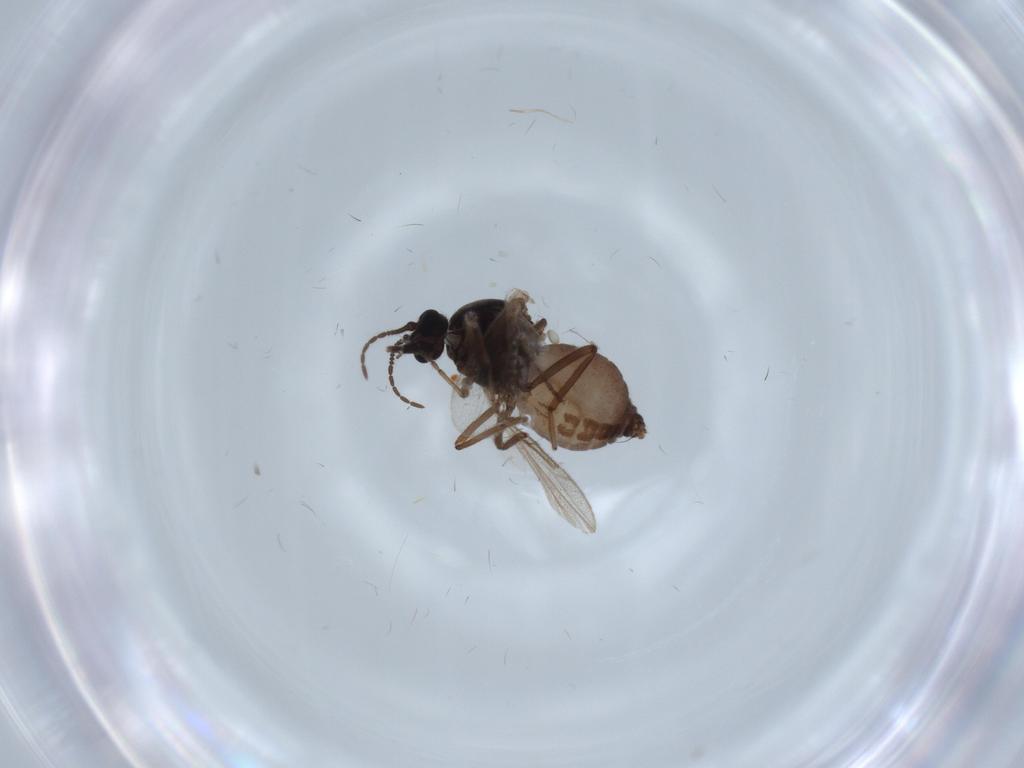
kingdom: Animalia
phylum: Arthropoda
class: Insecta
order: Diptera
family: Ceratopogonidae
